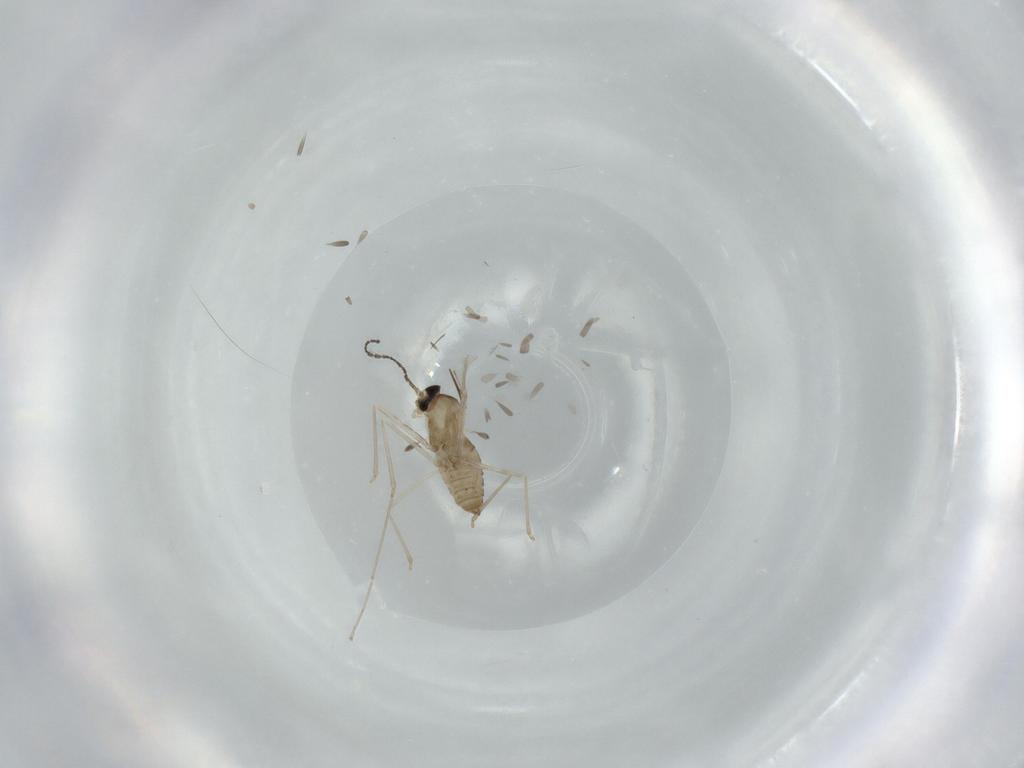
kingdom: Animalia
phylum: Arthropoda
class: Insecta
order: Diptera
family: Cecidomyiidae
